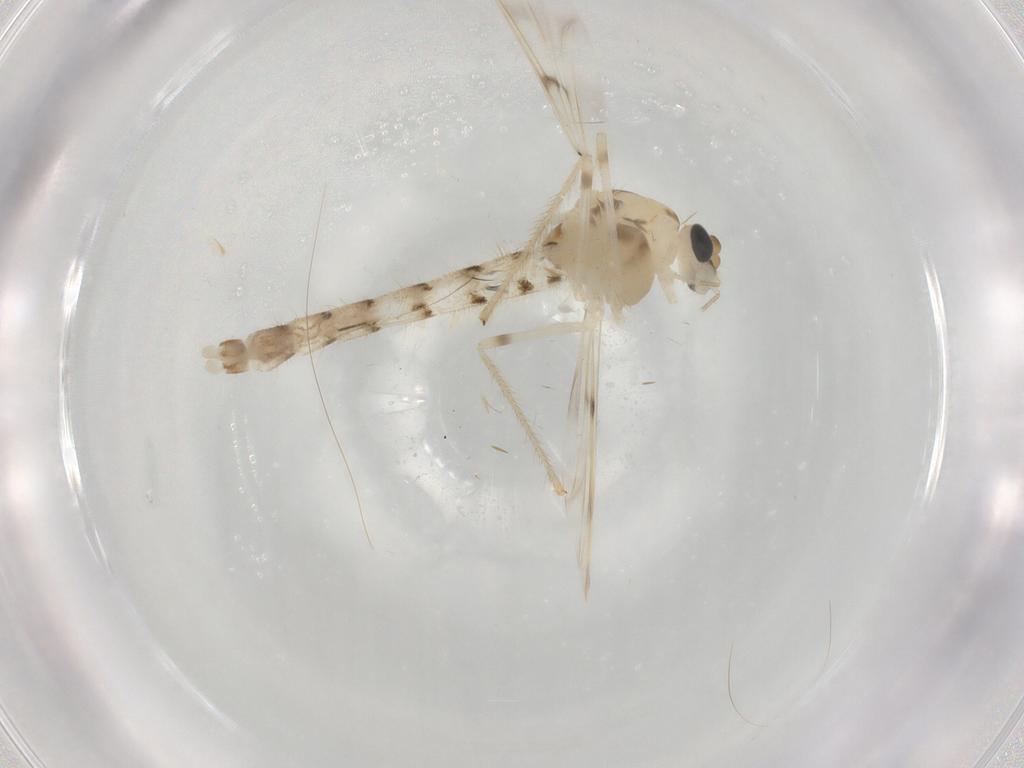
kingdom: Animalia
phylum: Arthropoda
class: Insecta
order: Diptera
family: Chironomidae
